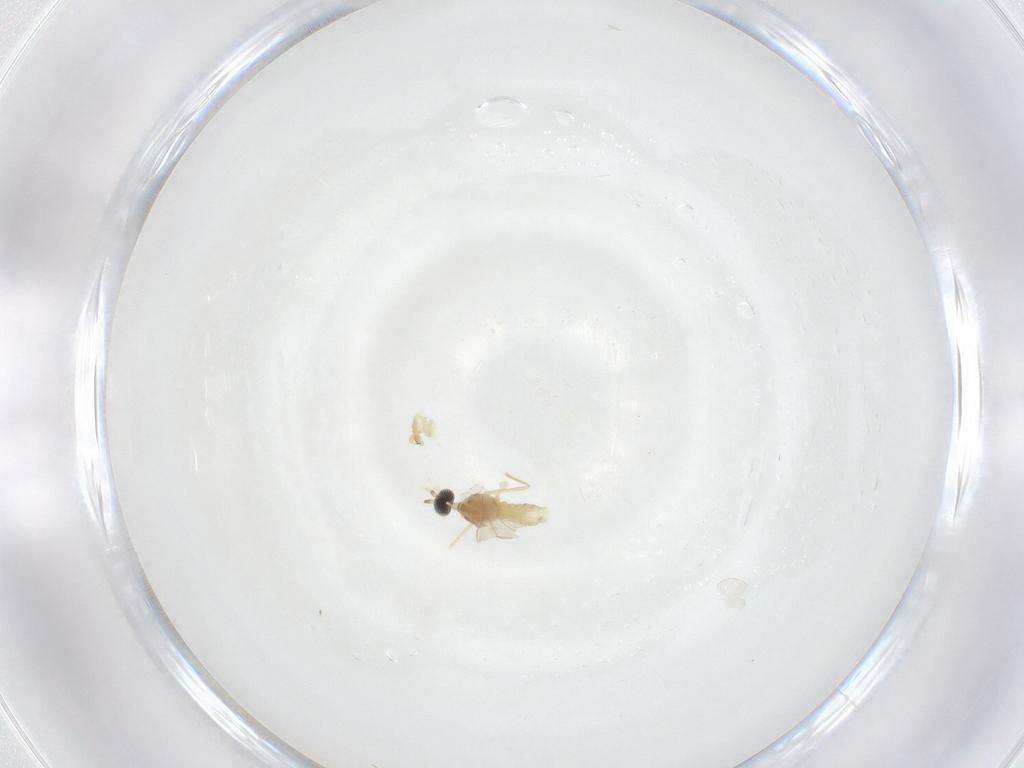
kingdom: Animalia
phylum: Arthropoda
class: Insecta
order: Diptera
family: Cecidomyiidae
